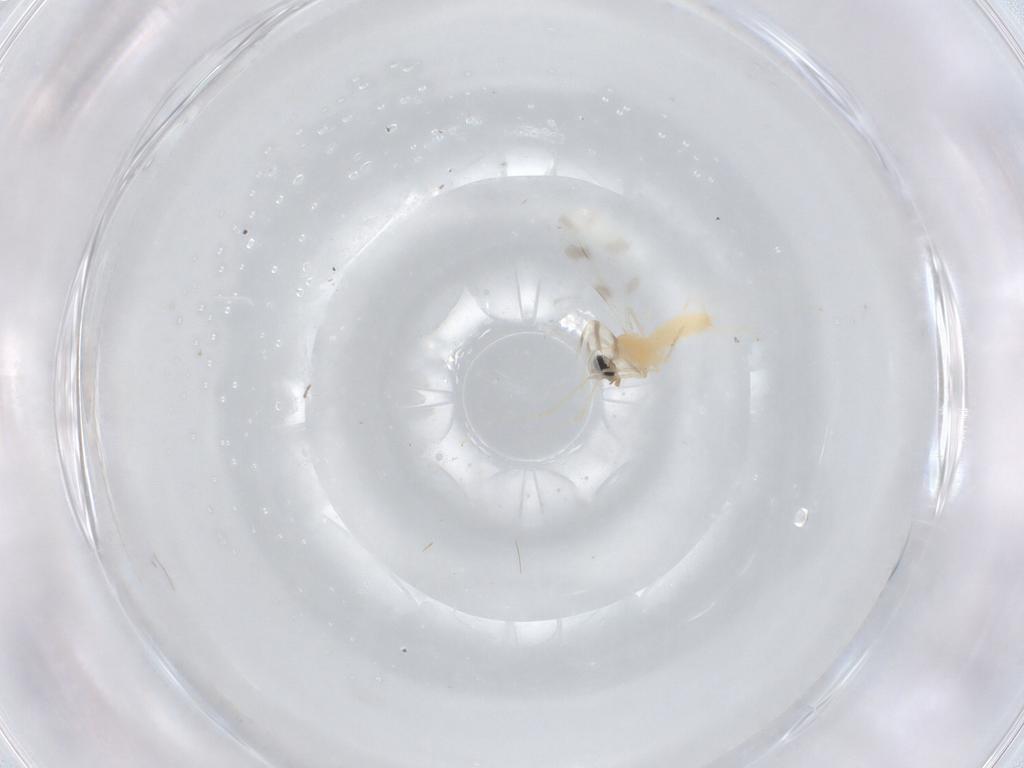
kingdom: Animalia
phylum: Arthropoda
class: Insecta
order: Diptera
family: Cecidomyiidae
